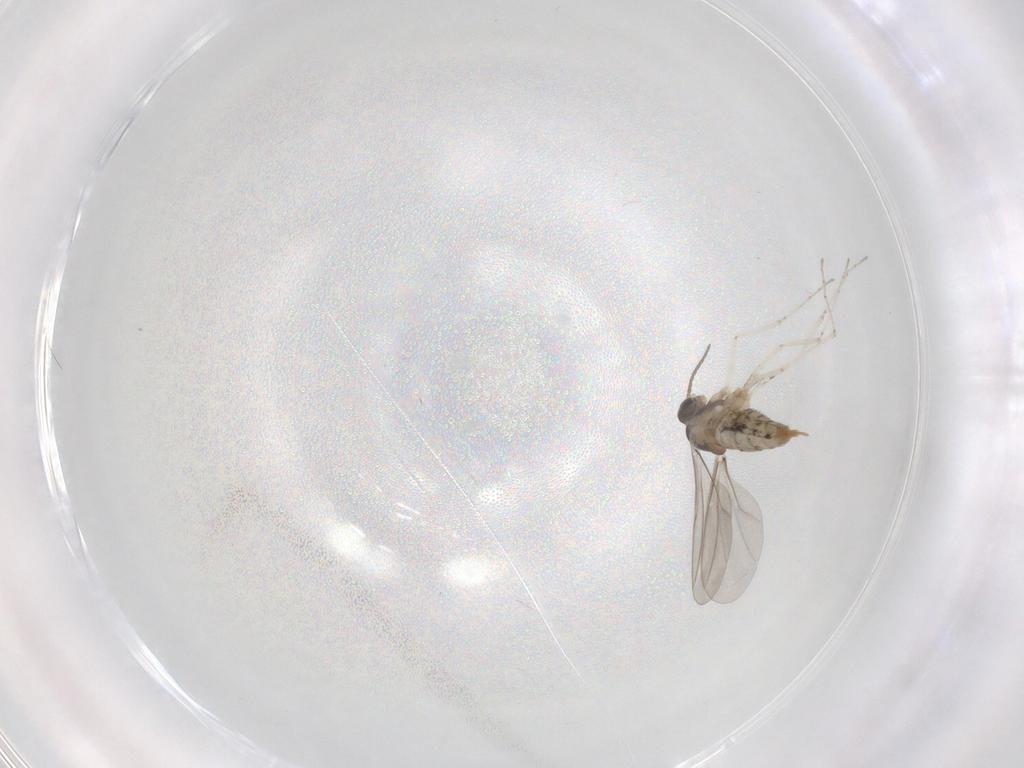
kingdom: Animalia
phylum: Arthropoda
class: Insecta
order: Diptera
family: Cecidomyiidae
